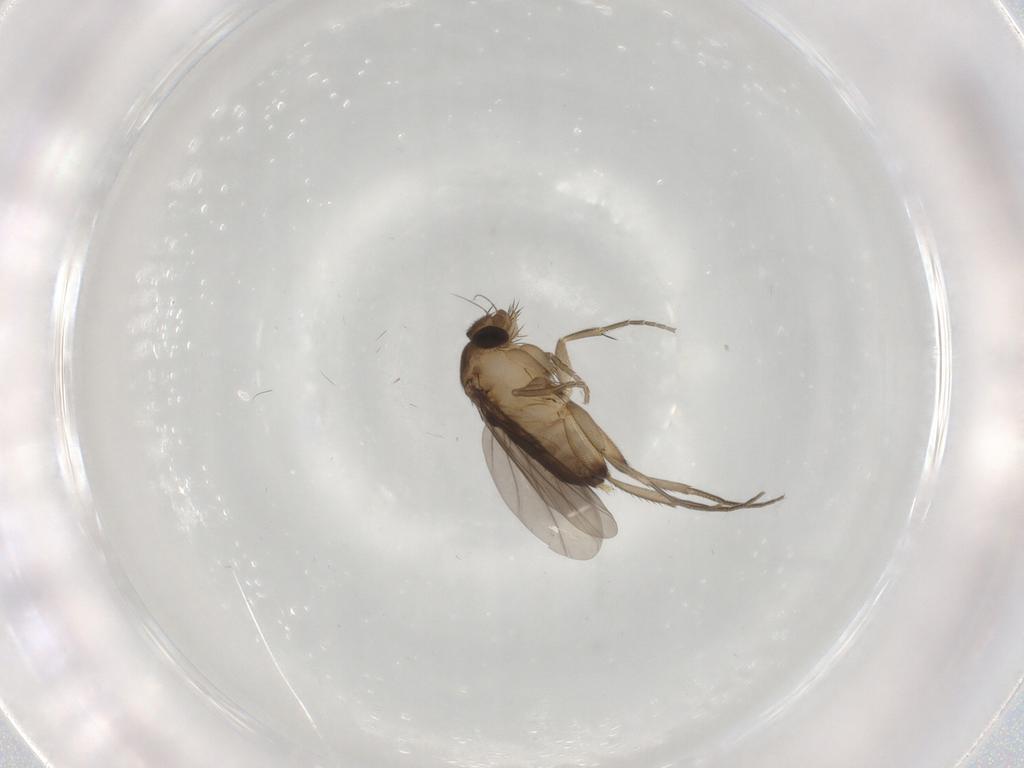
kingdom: Animalia
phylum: Arthropoda
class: Insecta
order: Diptera
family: Phoridae
